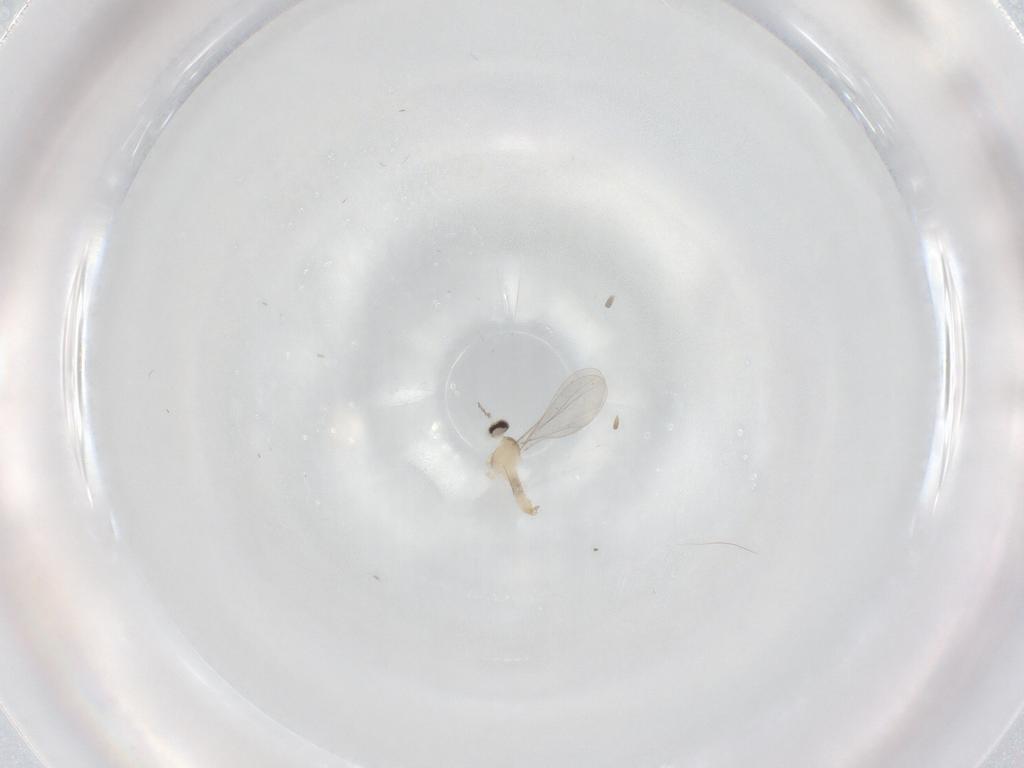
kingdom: Animalia
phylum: Arthropoda
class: Insecta
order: Diptera
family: Cecidomyiidae
